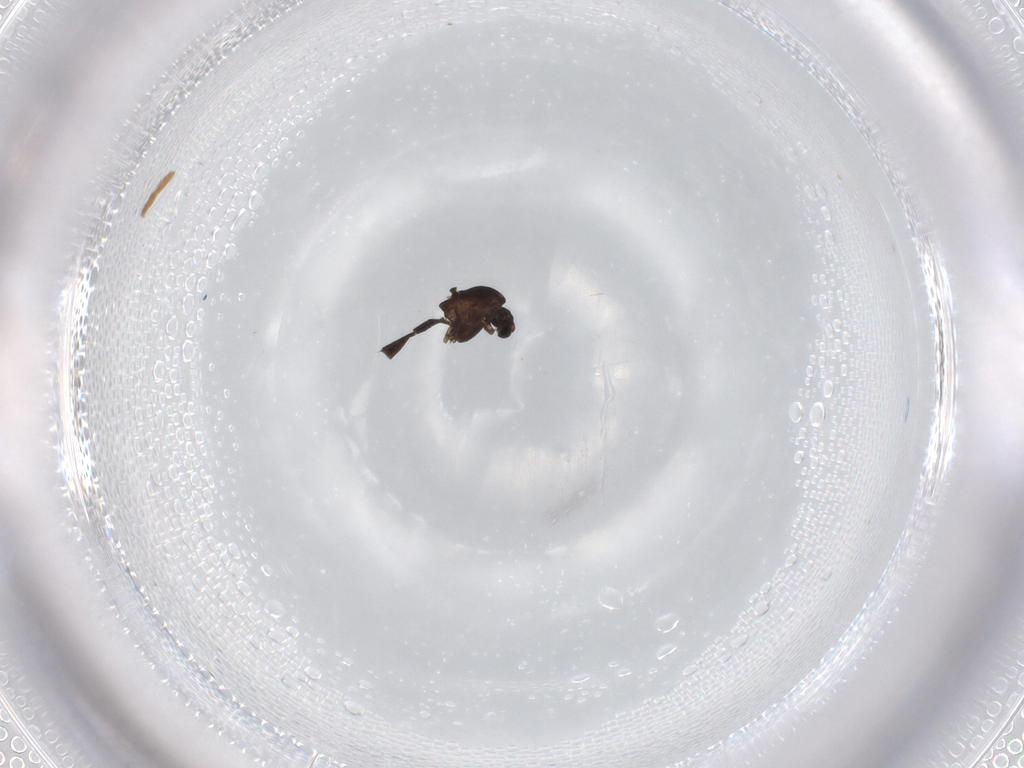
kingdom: Animalia
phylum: Arthropoda
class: Insecta
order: Diptera
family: Chironomidae
